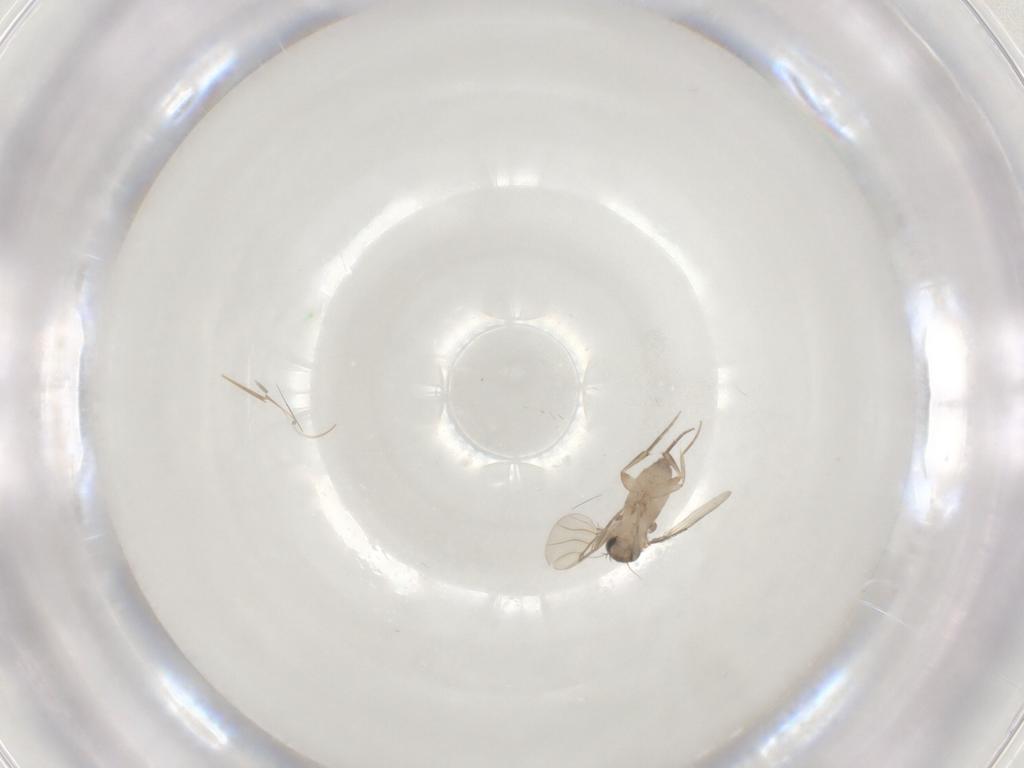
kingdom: Animalia
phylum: Arthropoda
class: Insecta
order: Diptera
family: Phoridae
